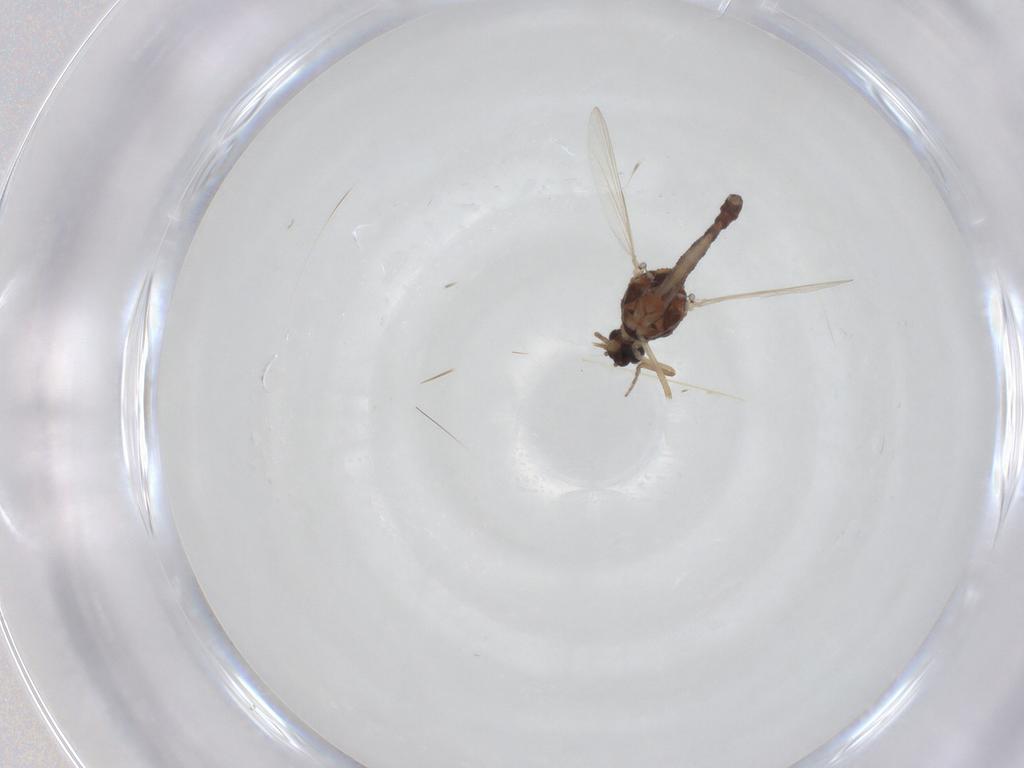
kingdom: Animalia
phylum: Arthropoda
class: Insecta
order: Diptera
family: Ceratopogonidae
